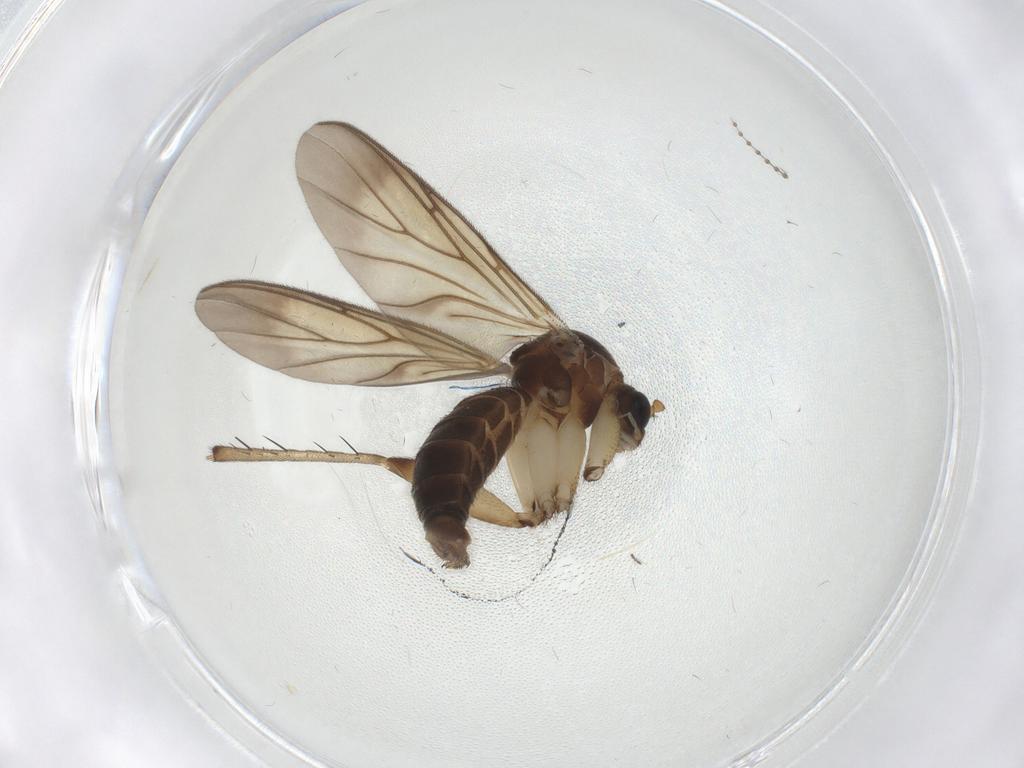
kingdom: Animalia
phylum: Arthropoda
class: Insecta
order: Diptera
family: Mycetophilidae
